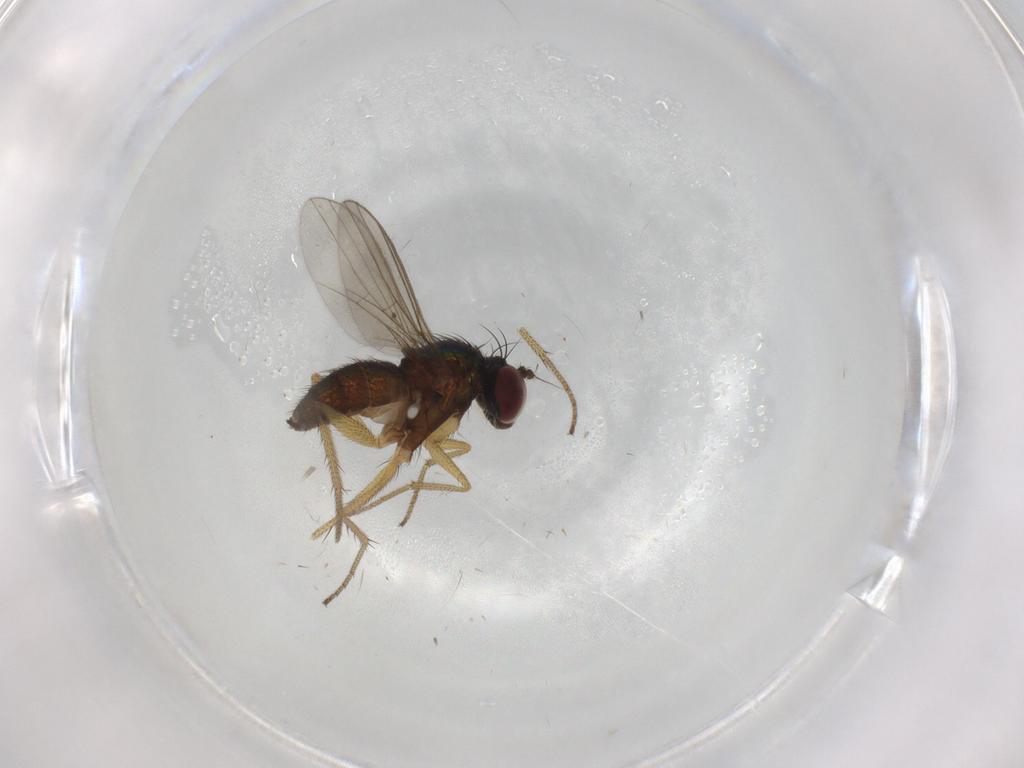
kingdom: Animalia
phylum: Arthropoda
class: Insecta
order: Diptera
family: Dolichopodidae
